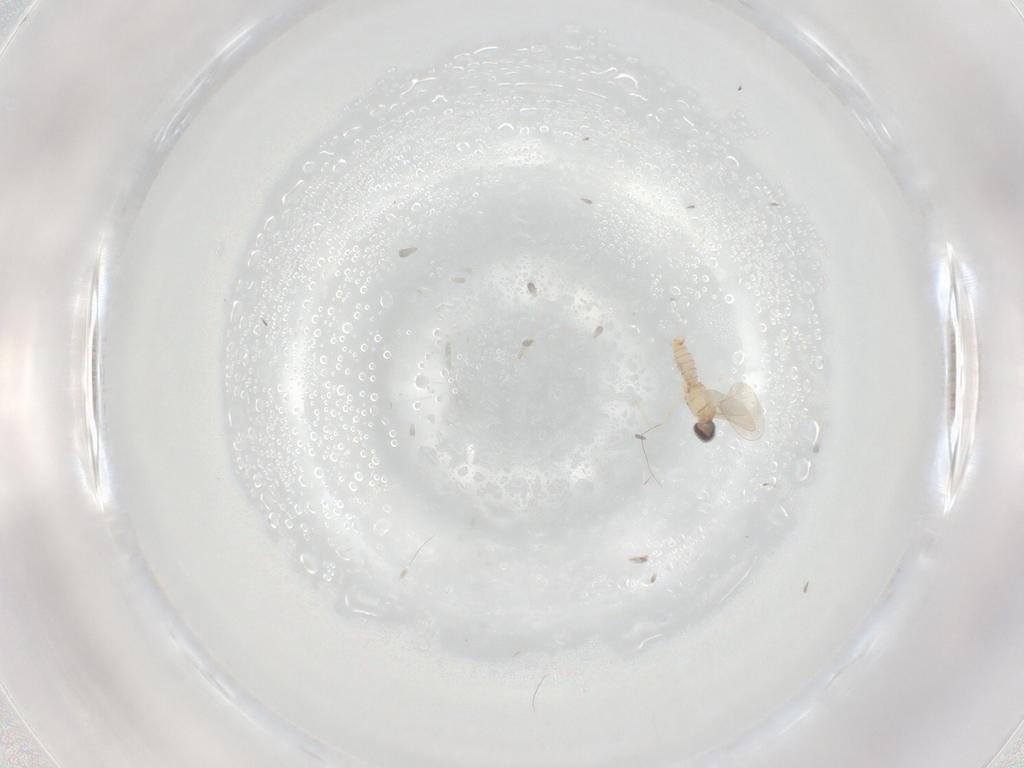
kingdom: Animalia
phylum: Arthropoda
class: Insecta
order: Diptera
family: Cecidomyiidae
